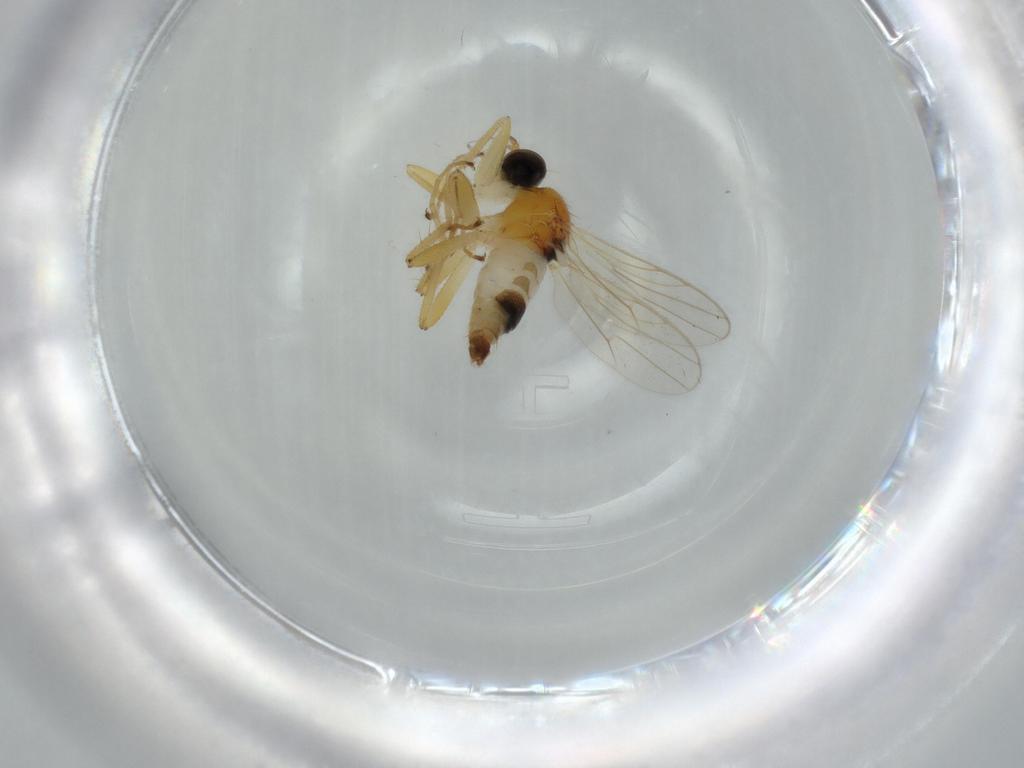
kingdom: Animalia
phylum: Arthropoda
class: Insecta
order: Diptera
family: Hybotidae
